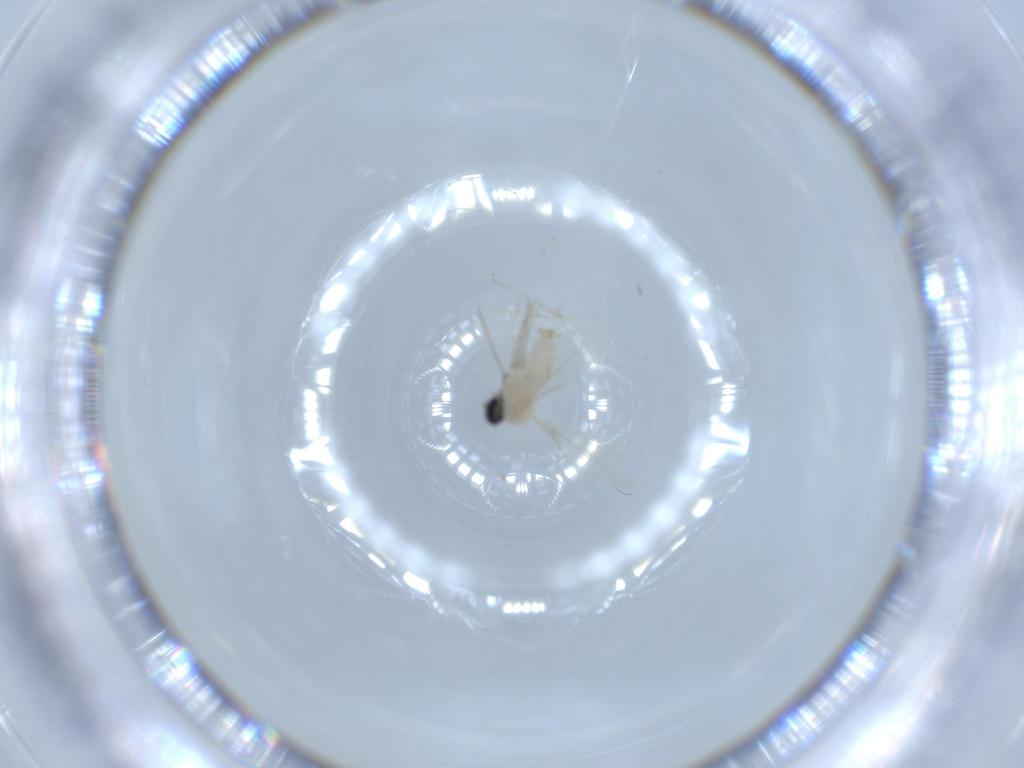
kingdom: Animalia
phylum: Arthropoda
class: Insecta
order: Diptera
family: Cecidomyiidae
